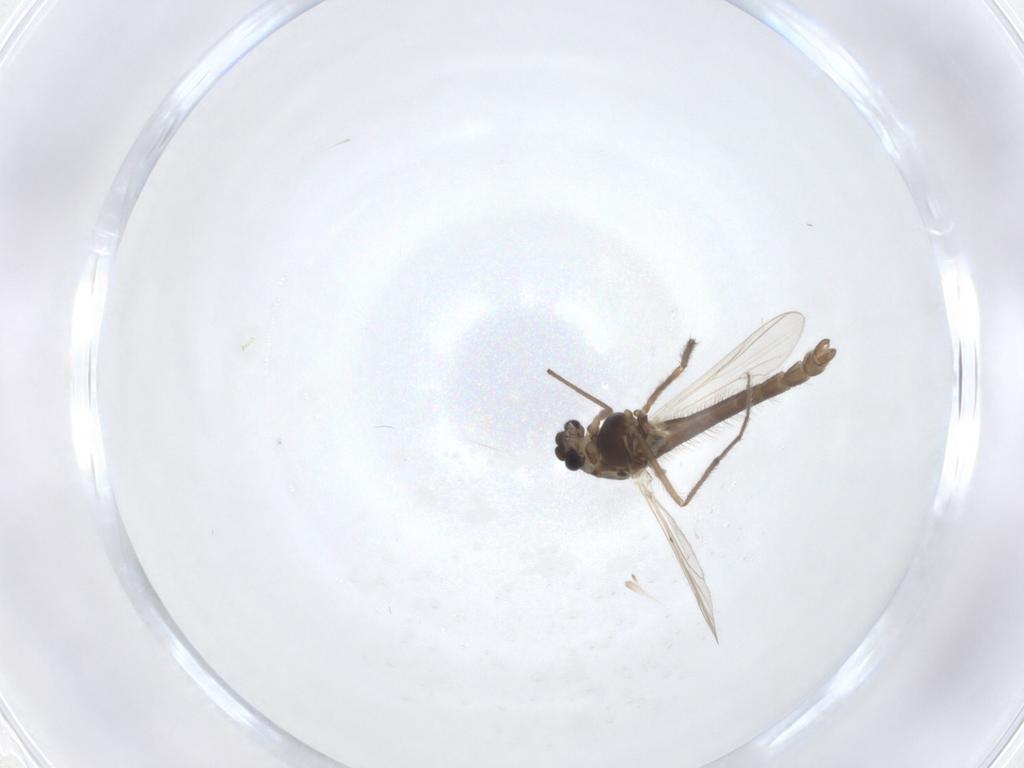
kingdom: Animalia
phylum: Arthropoda
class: Insecta
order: Diptera
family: Chironomidae
